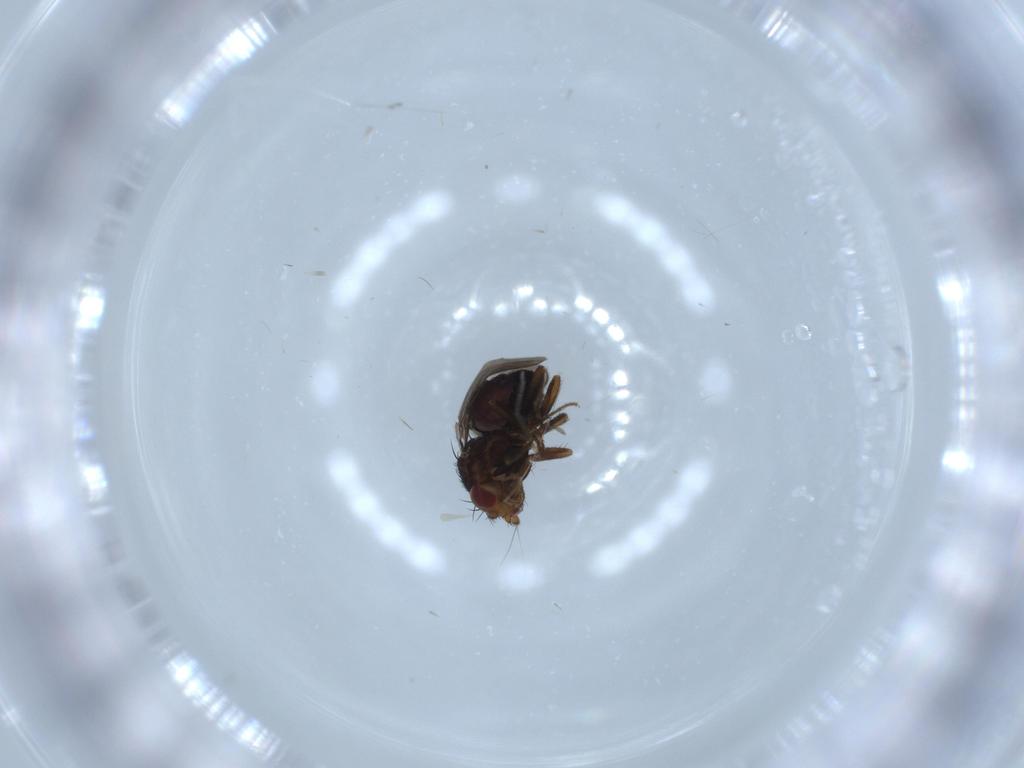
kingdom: Animalia
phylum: Arthropoda
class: Insecta
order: Diptera
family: Sphaeroceridae
